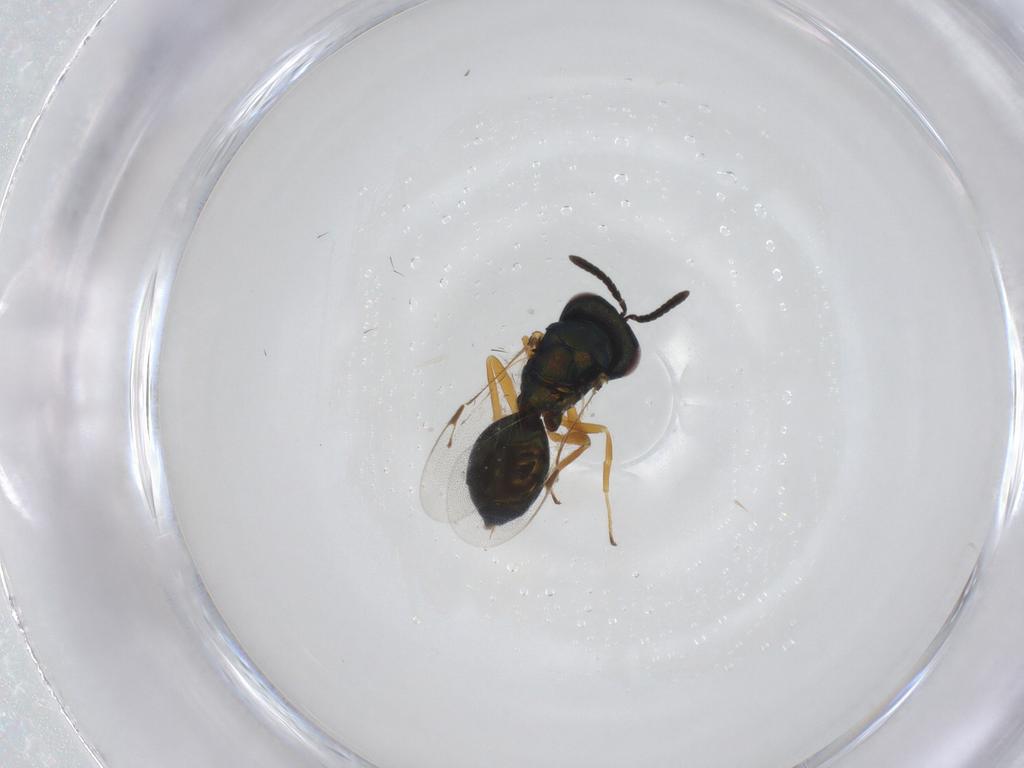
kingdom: Animalia
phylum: Arthropoda
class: Insecta
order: Hymenoptera
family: Pteromalidae
